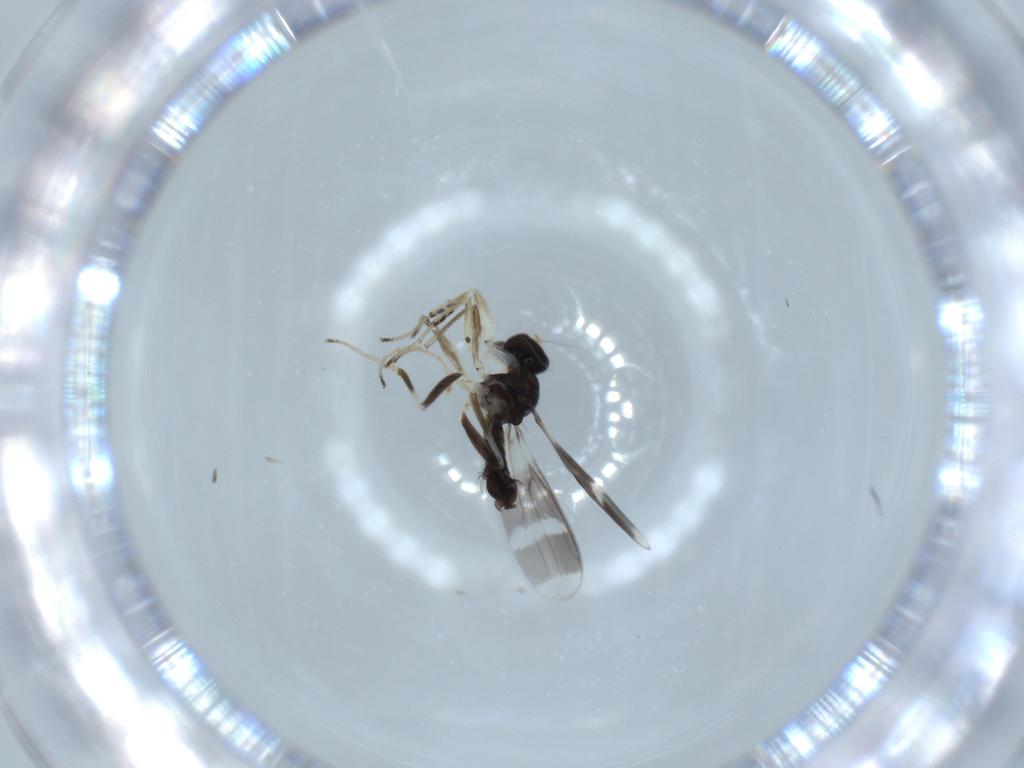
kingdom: Animalia
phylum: Arthropoda
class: Insecta
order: Diptera
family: Hybotidae
